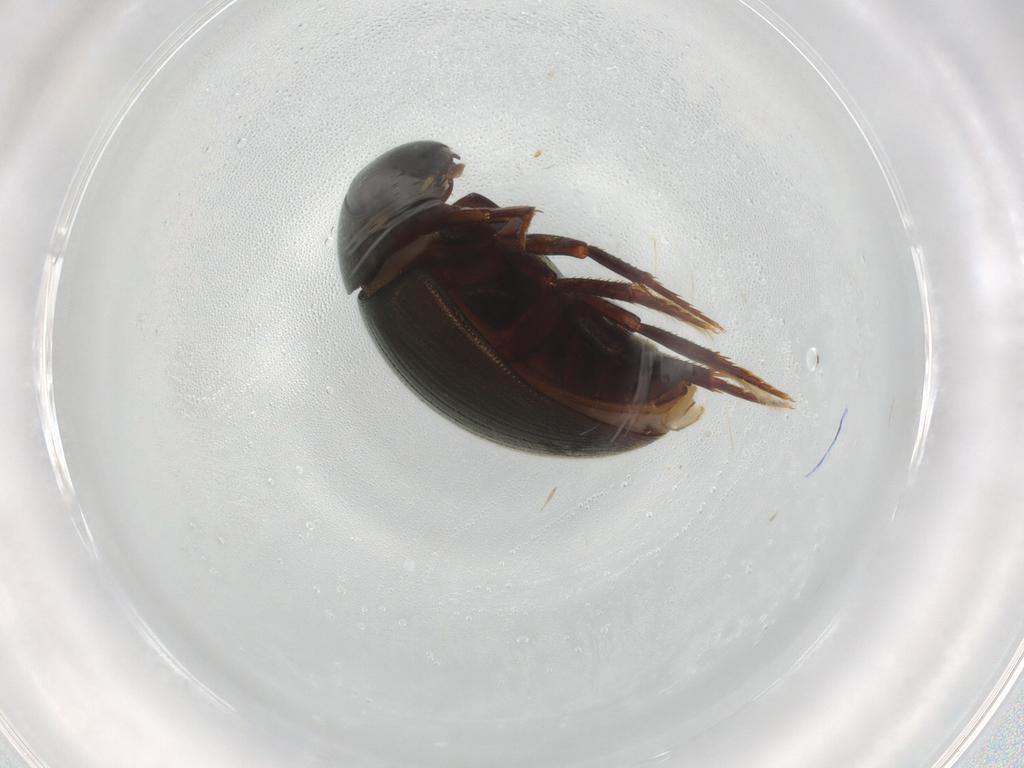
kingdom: Animalia
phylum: Arthropoda
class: Insecta
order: Coleoptera
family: Hydrophilidae
